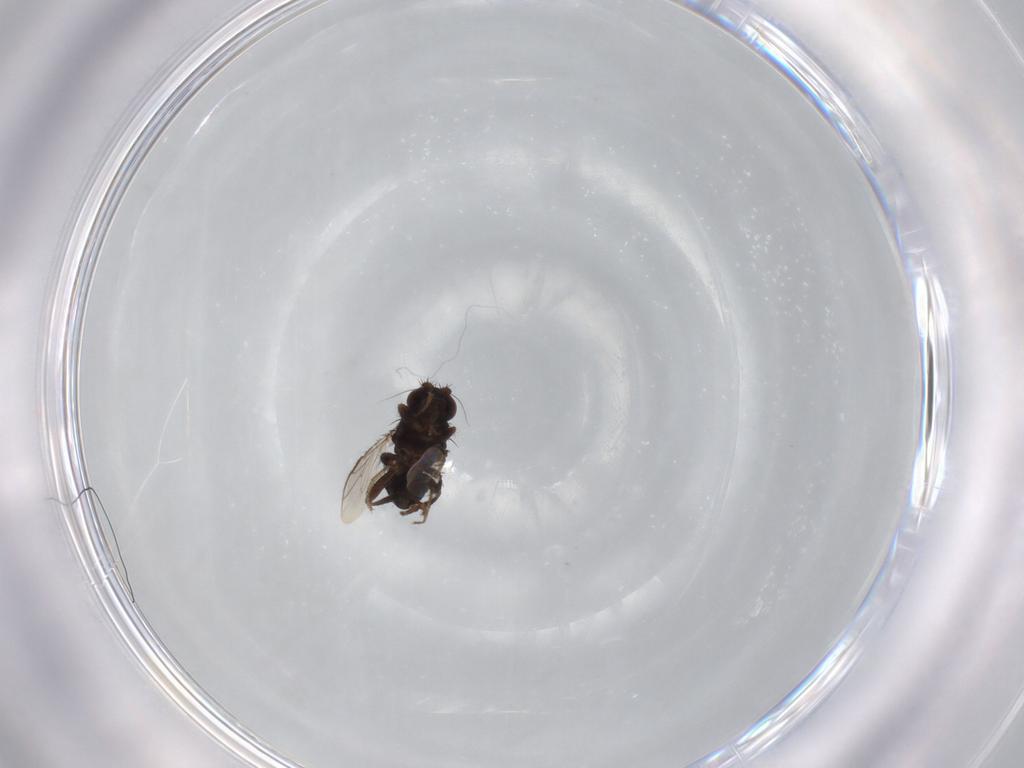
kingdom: Animalia
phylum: Arthropoda
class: Insecta
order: Diptera
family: Sphaeroceridae
